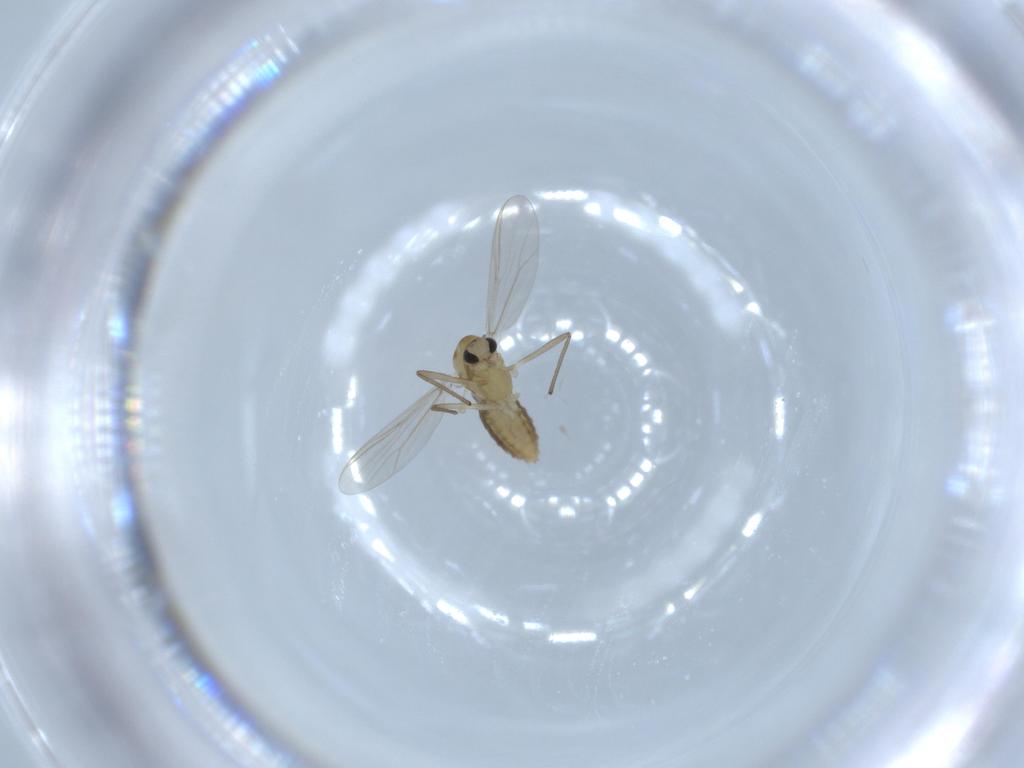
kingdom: Animalia
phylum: Arthropoda
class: Insecta
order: Diptera
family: Chironomidae
